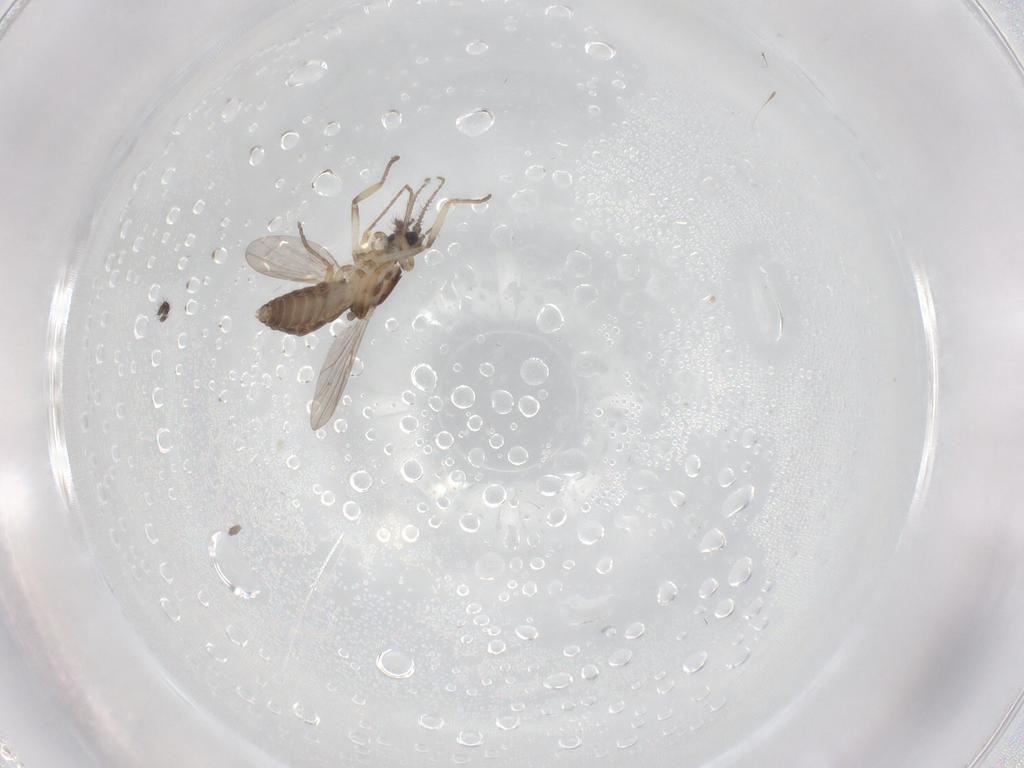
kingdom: Animalia
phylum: Arthropoda
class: Insecta
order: Diptera
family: Ceratopogonidae
